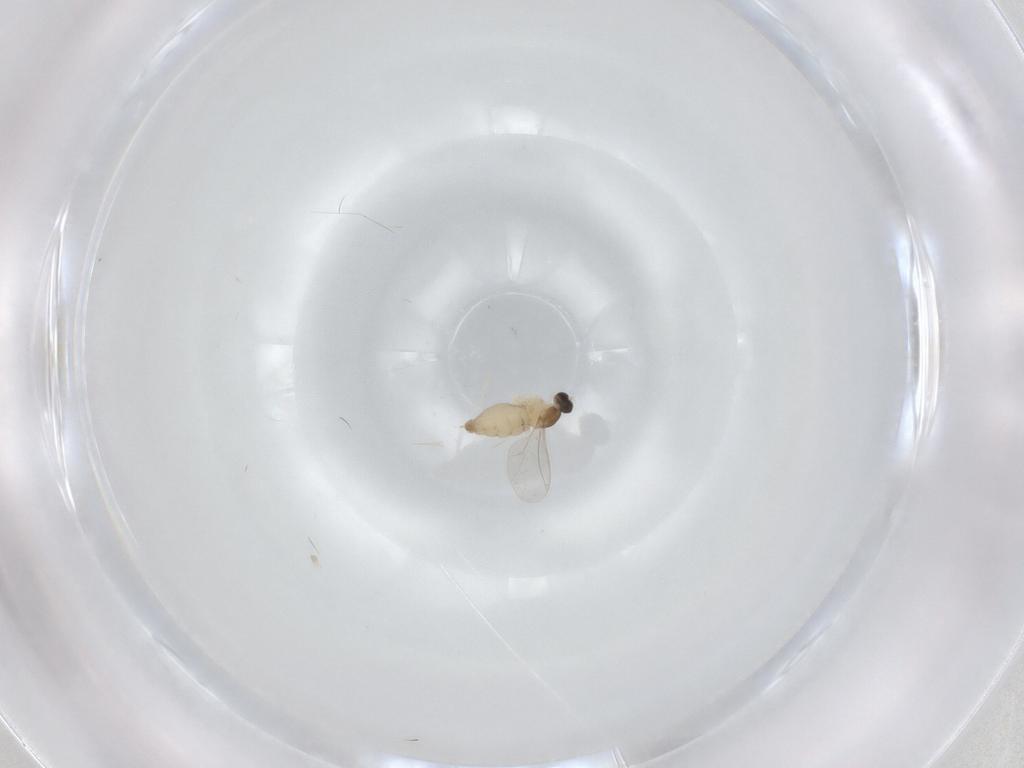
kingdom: Animalia
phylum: Arthropoda
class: Insecta
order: Diptera
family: Cecidomyiidae
